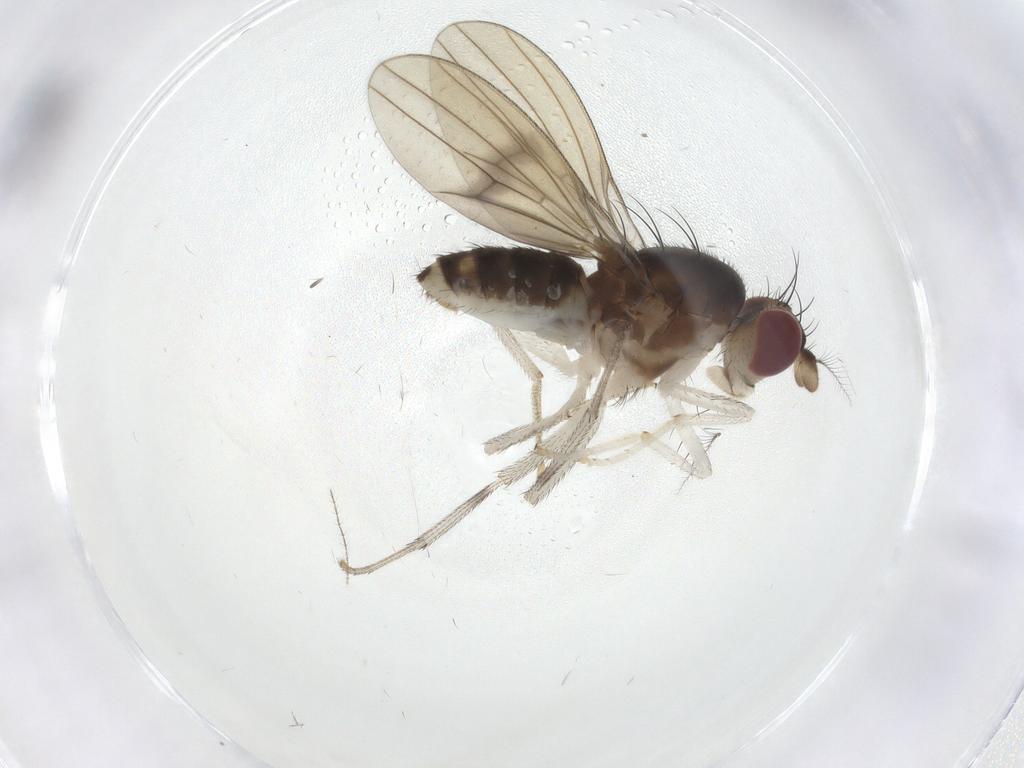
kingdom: Animalia
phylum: Arthropoda
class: Insecta
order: Diptera
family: Lauxaniidae
